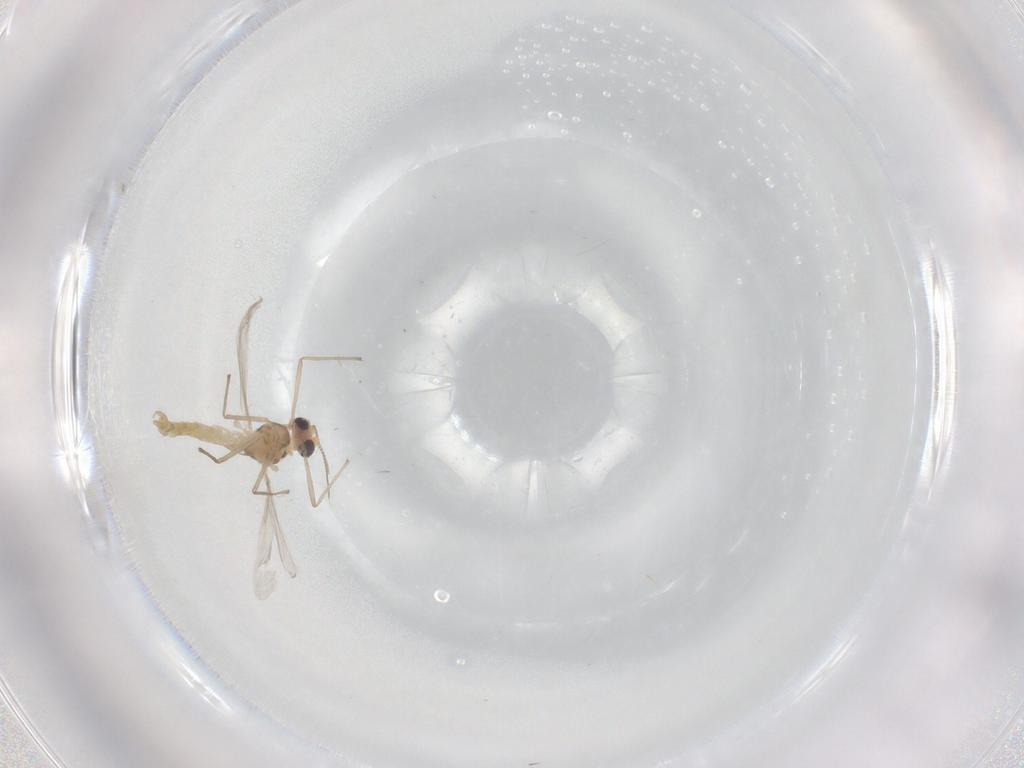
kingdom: Animalia
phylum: Arthropoda
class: Insecta
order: Diptera
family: Chironomidae
